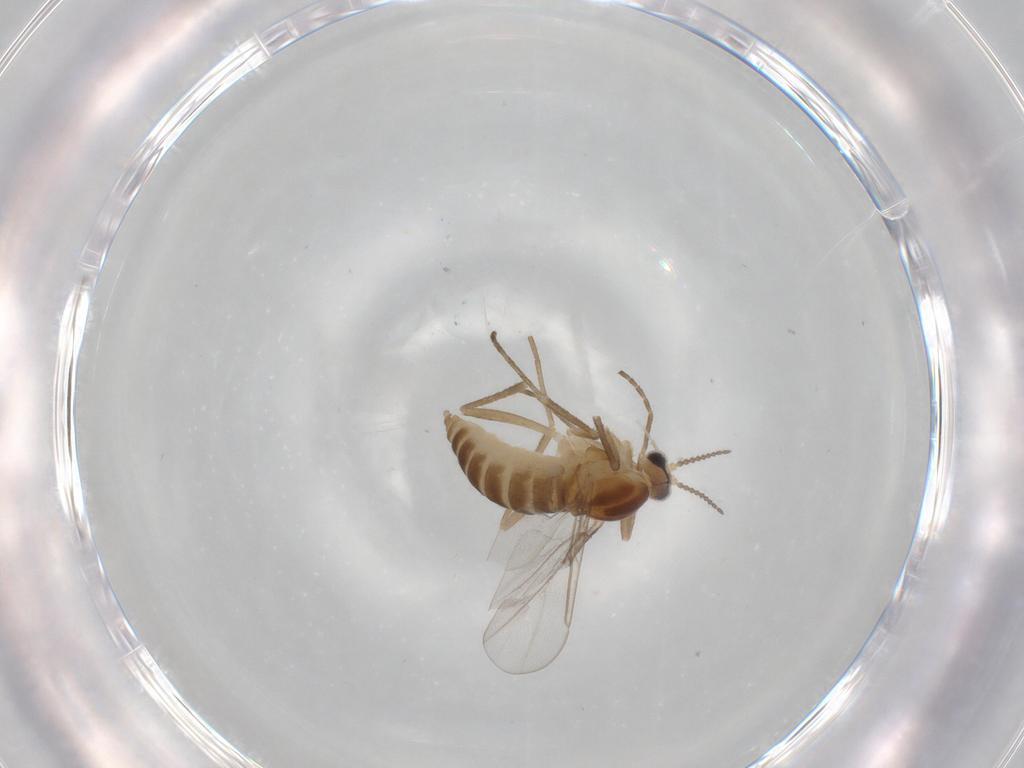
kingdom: Animalia
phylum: Arthropoda
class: Insecta
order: Diptera
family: Cecidomyiidae
